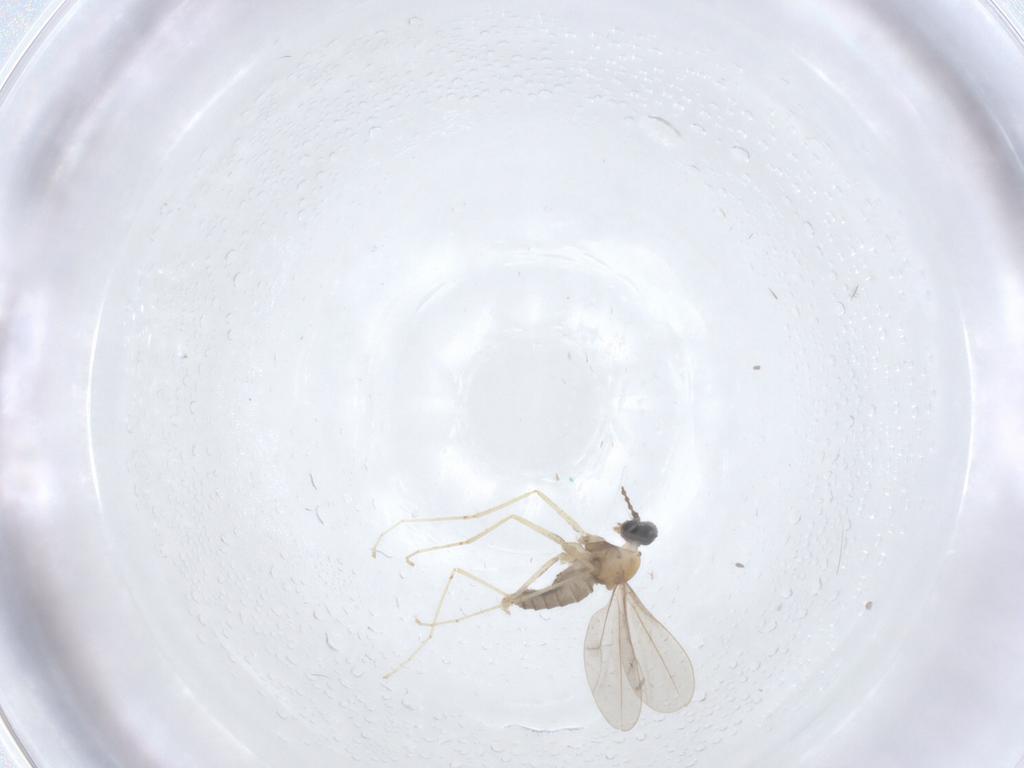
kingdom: Animalia
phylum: Arthropoda
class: Insecta
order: Diptera
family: Cecidomyiidae
